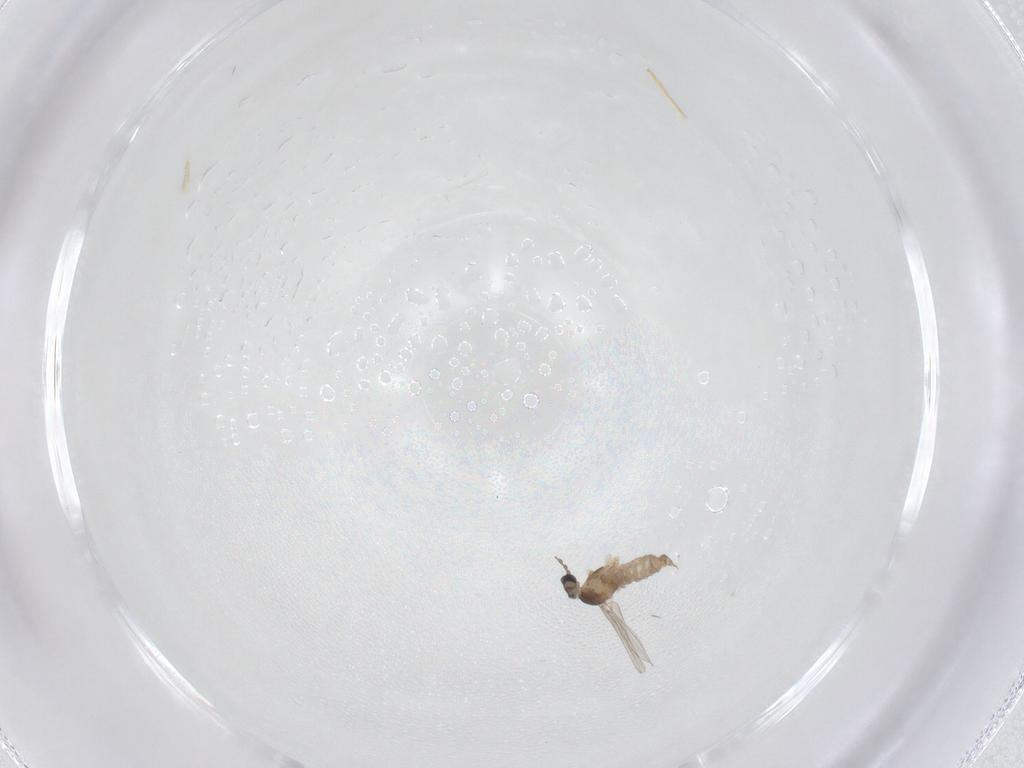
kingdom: Animalia
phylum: Arthropoda
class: Insecta
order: Diptera
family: Cecidomyiidae
